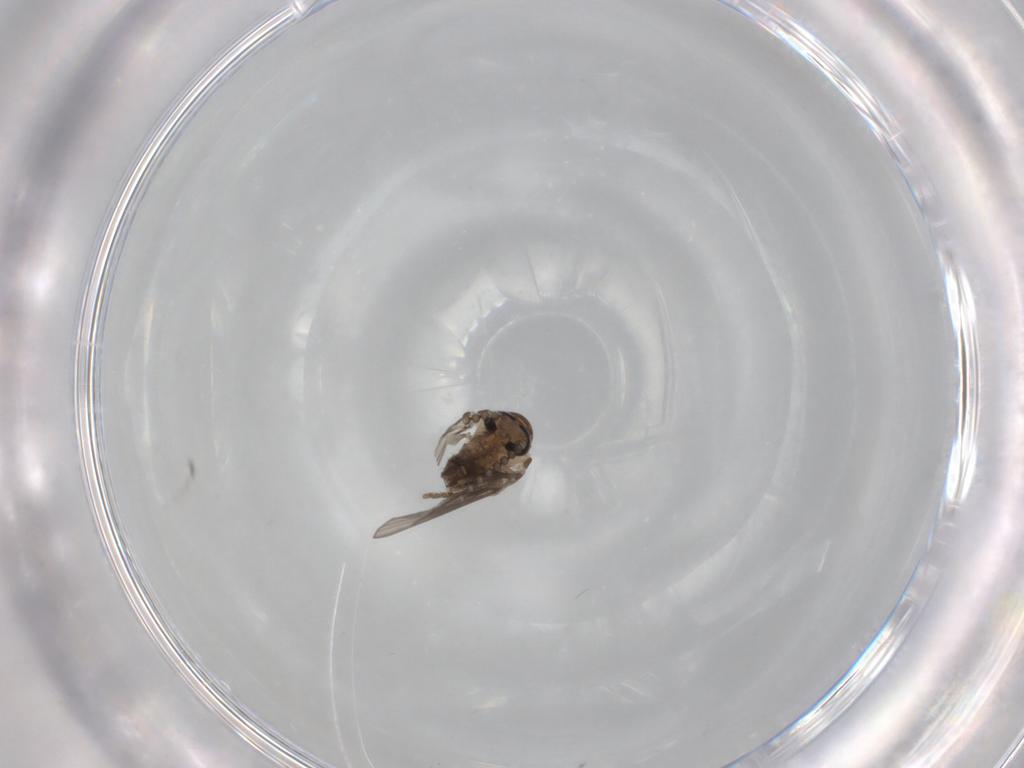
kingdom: Animalia
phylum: Arthropoda
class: Insecta
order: Diptera
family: Psychodidae
